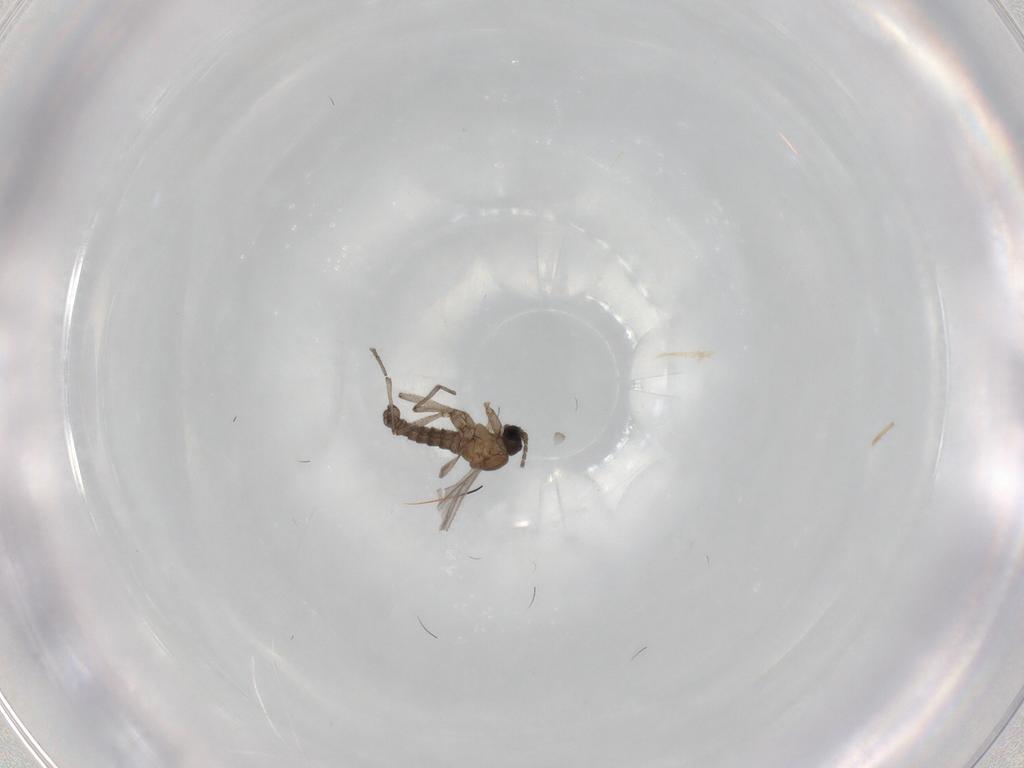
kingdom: Animalia
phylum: Arthropoda
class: Insecta
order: Diptera
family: Sciaridae
